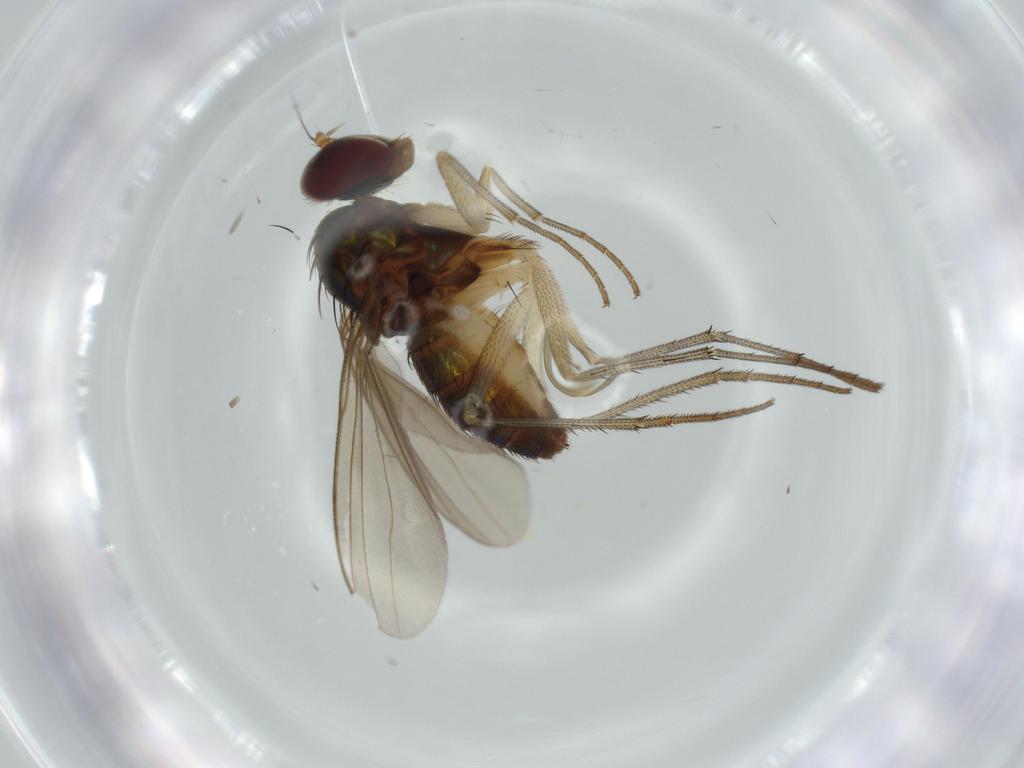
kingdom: Animalia
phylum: Arthropoda
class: Insecta
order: Diptera
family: Dolichopodidae
